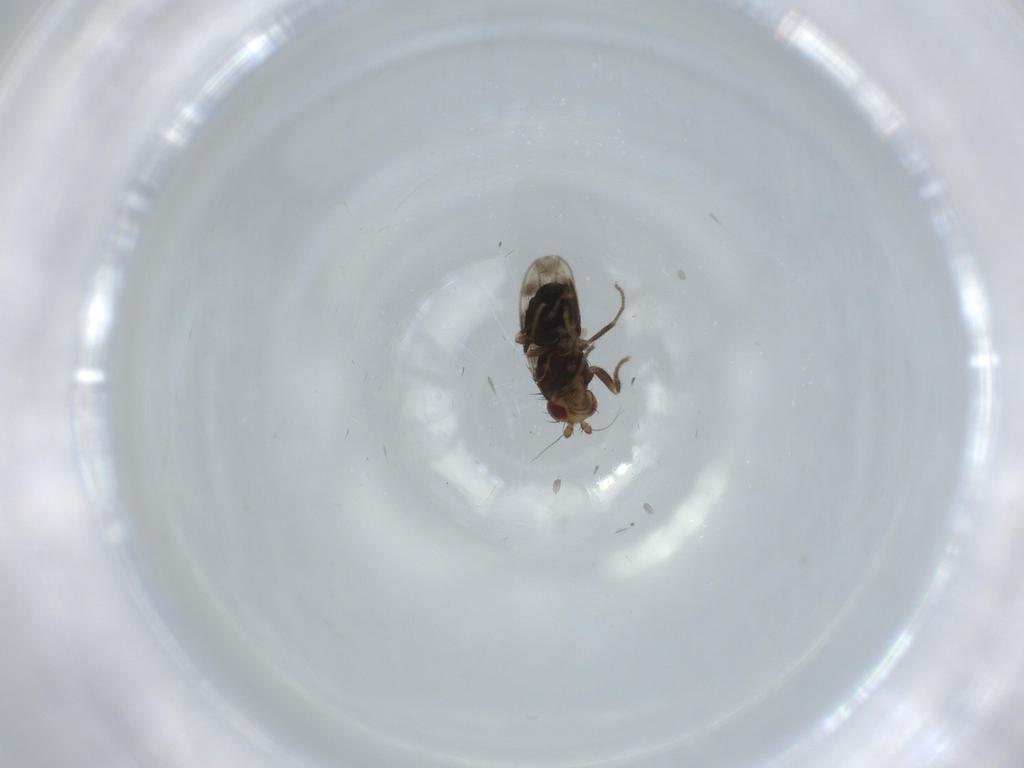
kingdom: Animalia
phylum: Arthropoda
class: Insecta
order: Diptera
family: Sphaeroceridae
